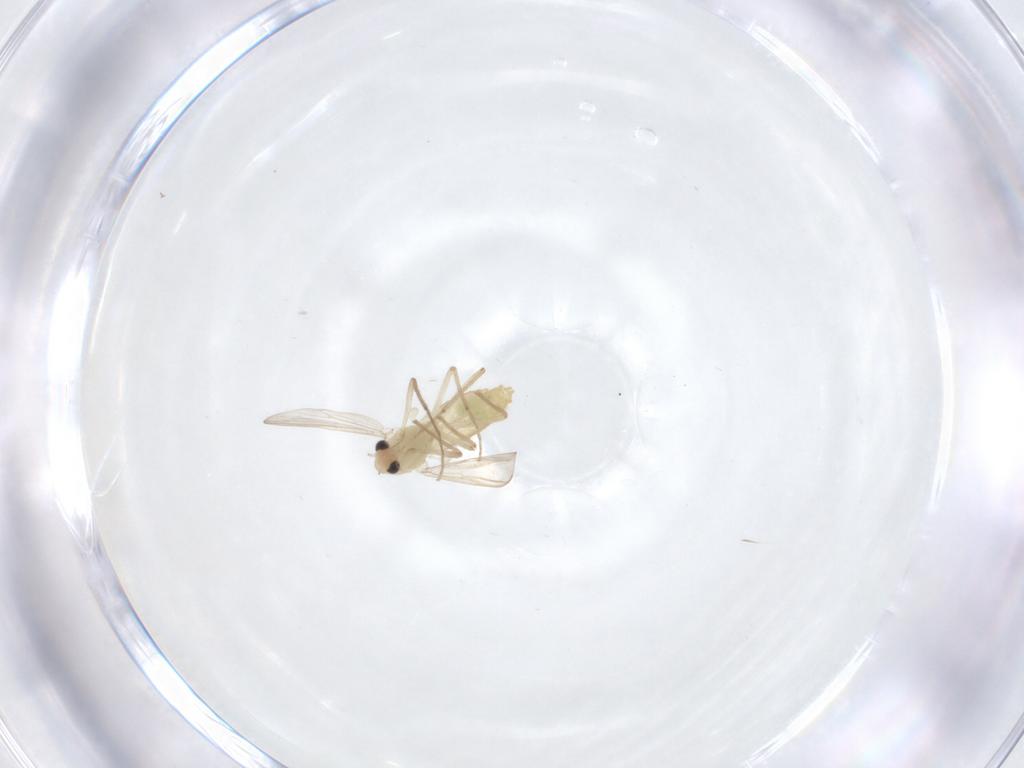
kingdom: Animalia
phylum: Arthropoda
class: Insecta
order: Diptera
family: Chironomidae
